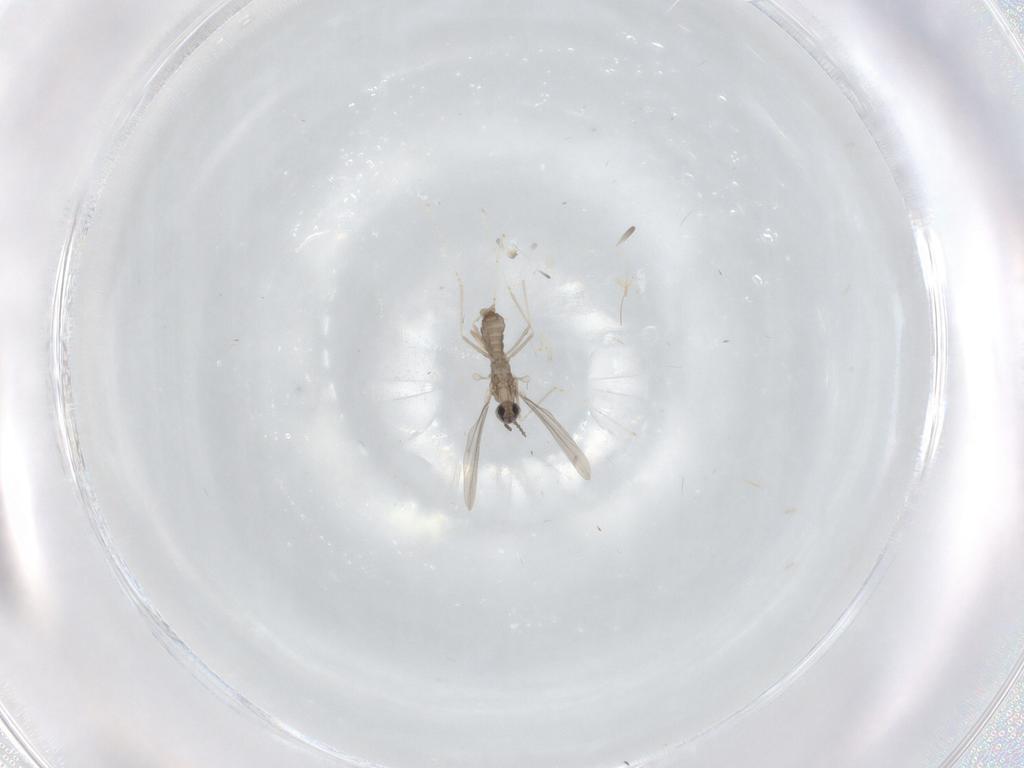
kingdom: Animalia
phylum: Arthropoda
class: Insecta
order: Diptera
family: Cecidomyiidae
